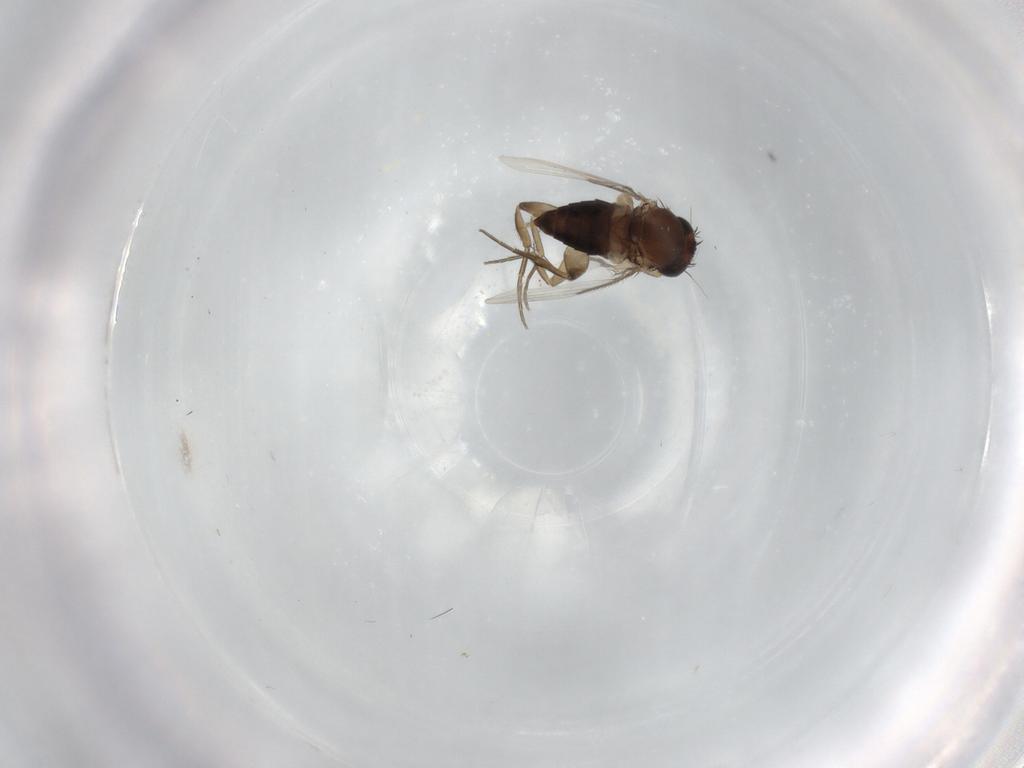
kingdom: Animalia
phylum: Arthropoda
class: Insecta
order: Diptera
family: Phoridae
